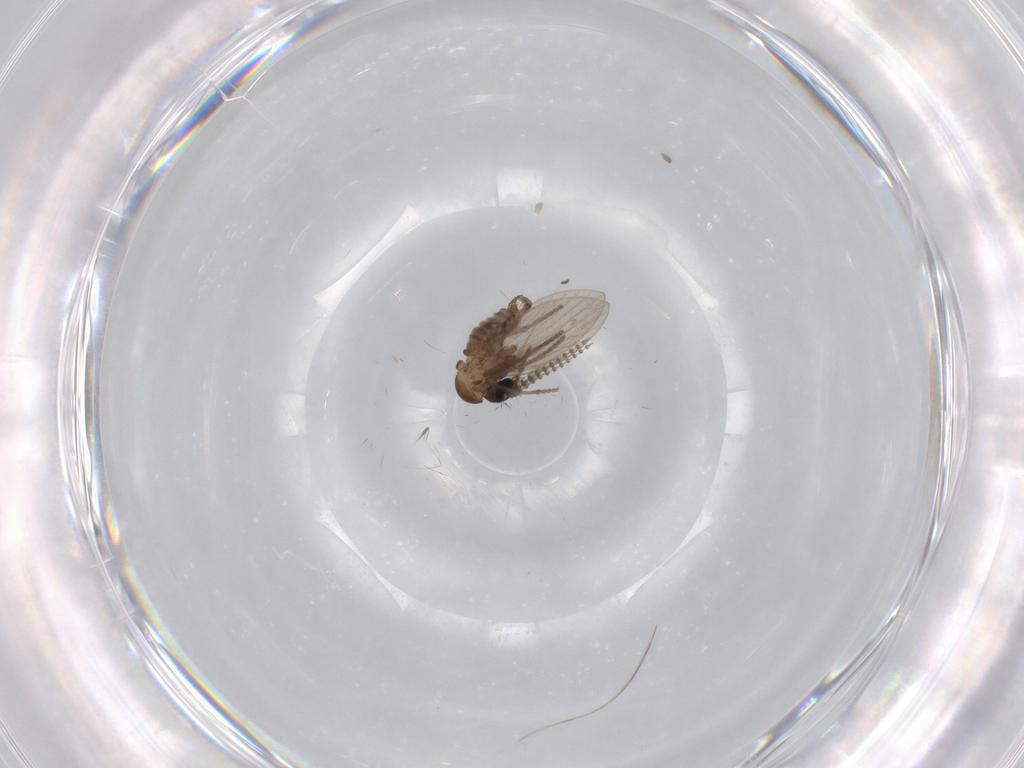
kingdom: Animalia
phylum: Arthropoda
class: Insecta
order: Diptera
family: Psychodidae
